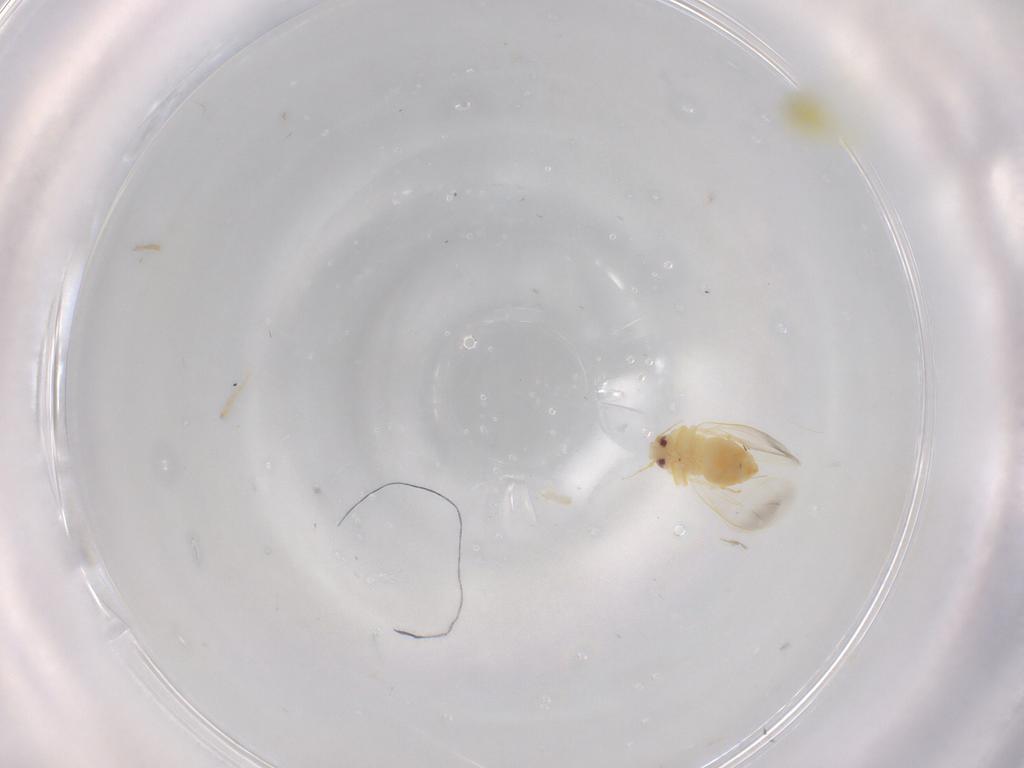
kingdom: Animalia
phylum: Arthropoda
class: Insecta
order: Hemiptera
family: Aleyrodidae
